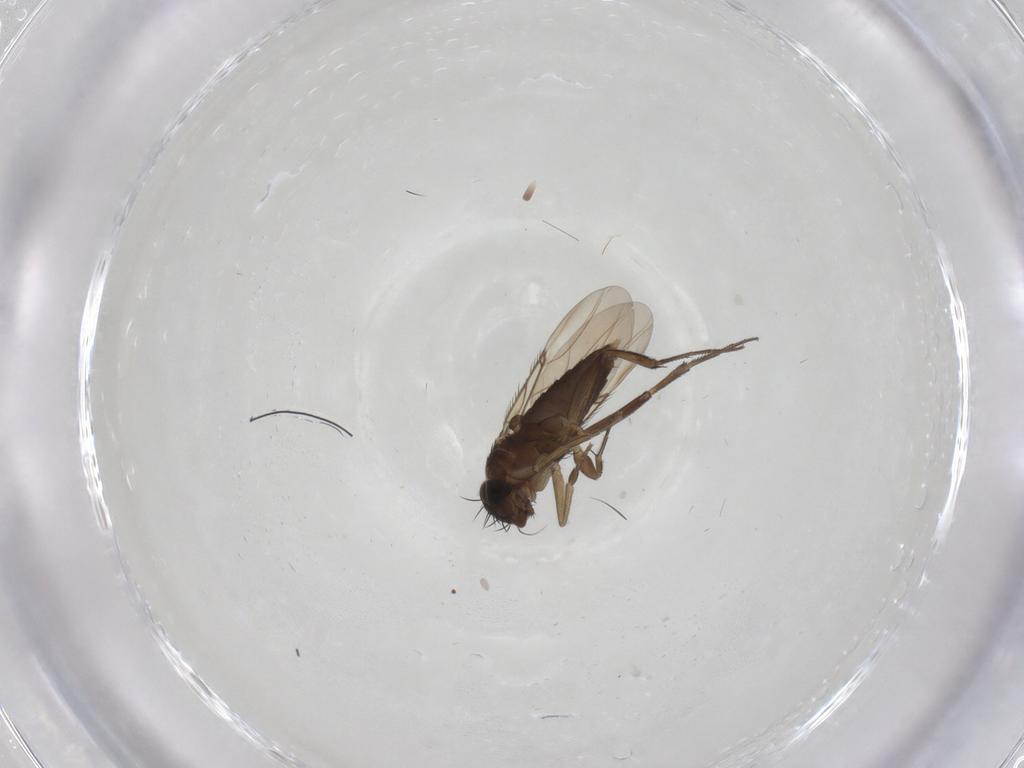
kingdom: Animalia
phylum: Arthropoda
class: Insecta
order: Diptera
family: Phoridae
